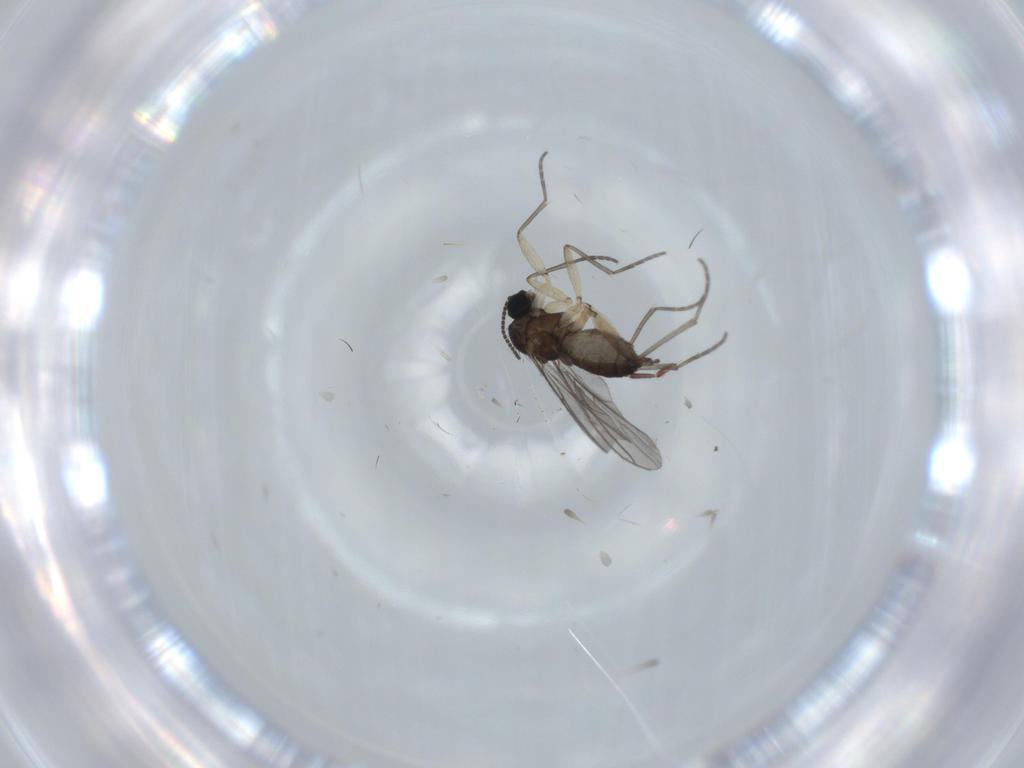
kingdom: Animalia
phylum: Arthropoda
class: Insecta
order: Diptera
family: Sciaridae
